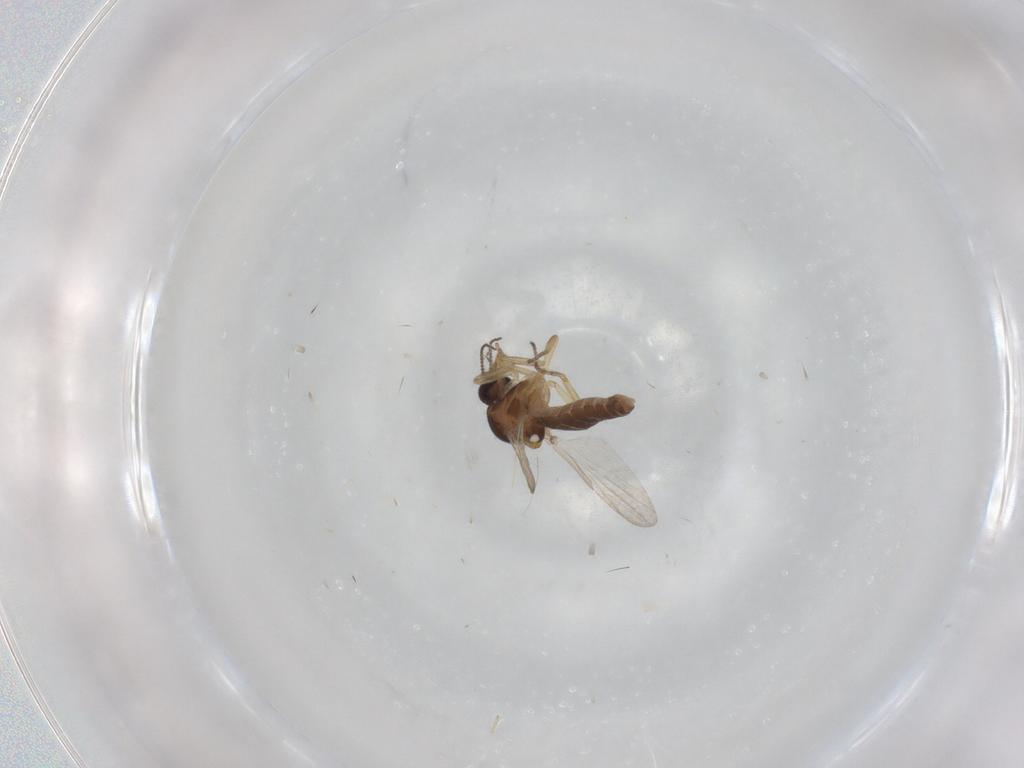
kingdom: Animalia
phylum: Arthropoda
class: Insecta
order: Diptera
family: Ceratopogonidae
